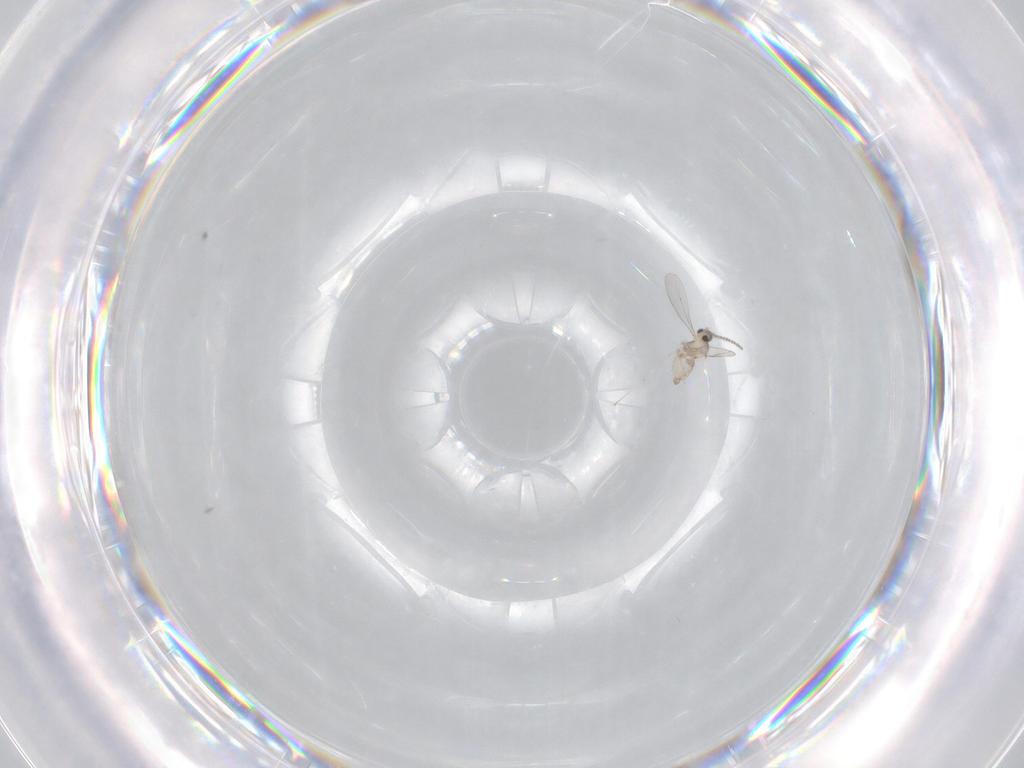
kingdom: Animalia
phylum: Arthropoda
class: Insecta
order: Diptera
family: Cecidomyiidae
